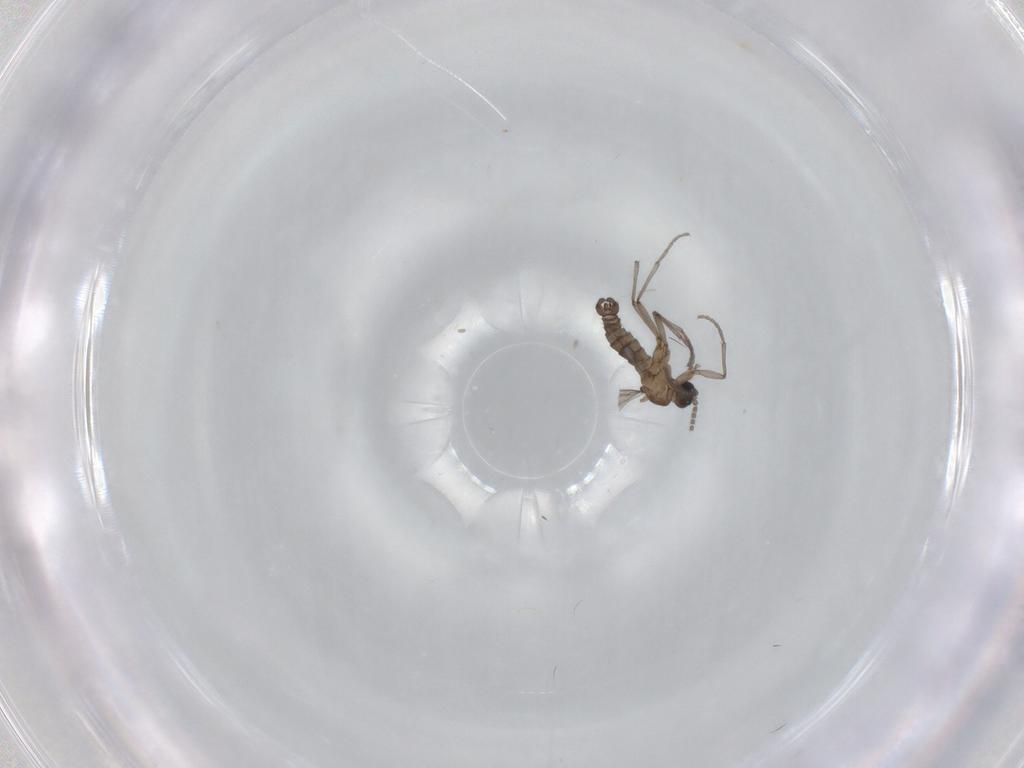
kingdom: Animalia
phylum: Arthropoda
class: Insecta
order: Diptera
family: Sciaridae
